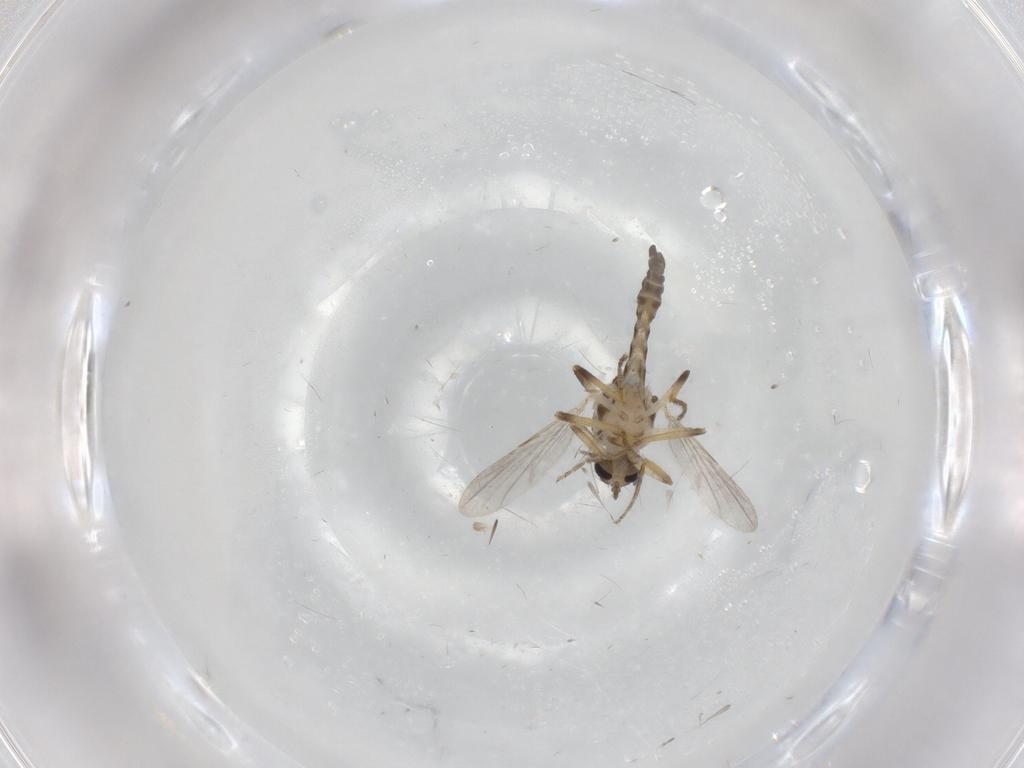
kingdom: Animalia
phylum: Arthropoda
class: Insecta
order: Diptera
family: Ceratopogonidae
